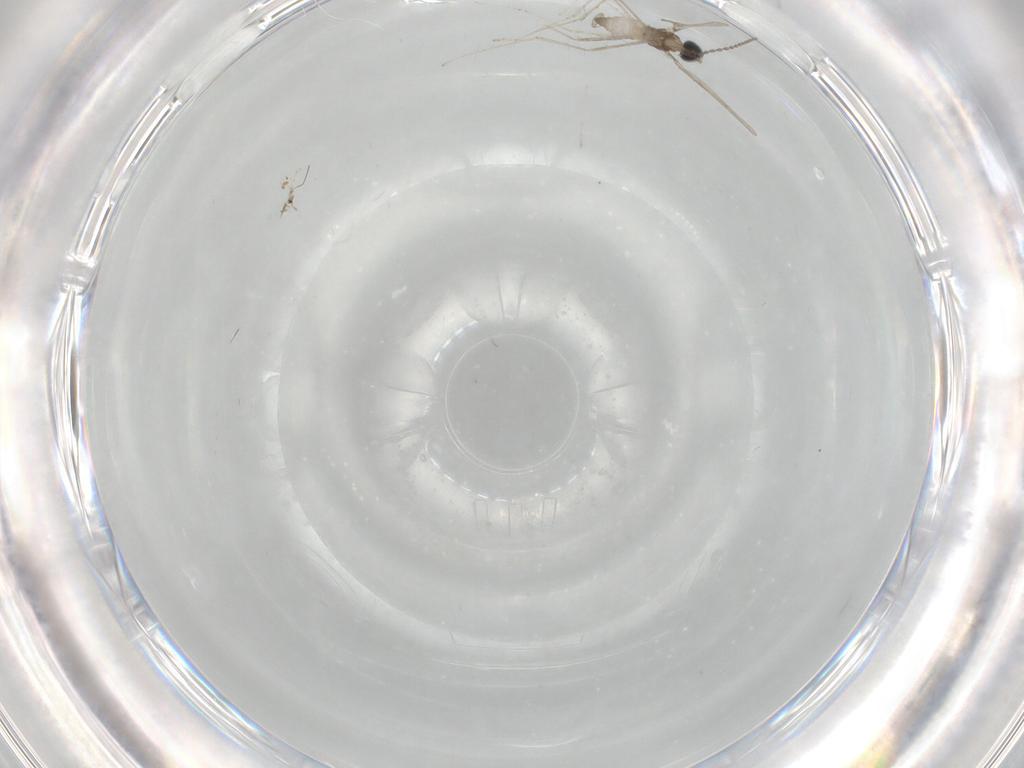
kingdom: Animalia
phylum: Arthropoda
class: Insecta
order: Diptera
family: Cecidomyiidae
